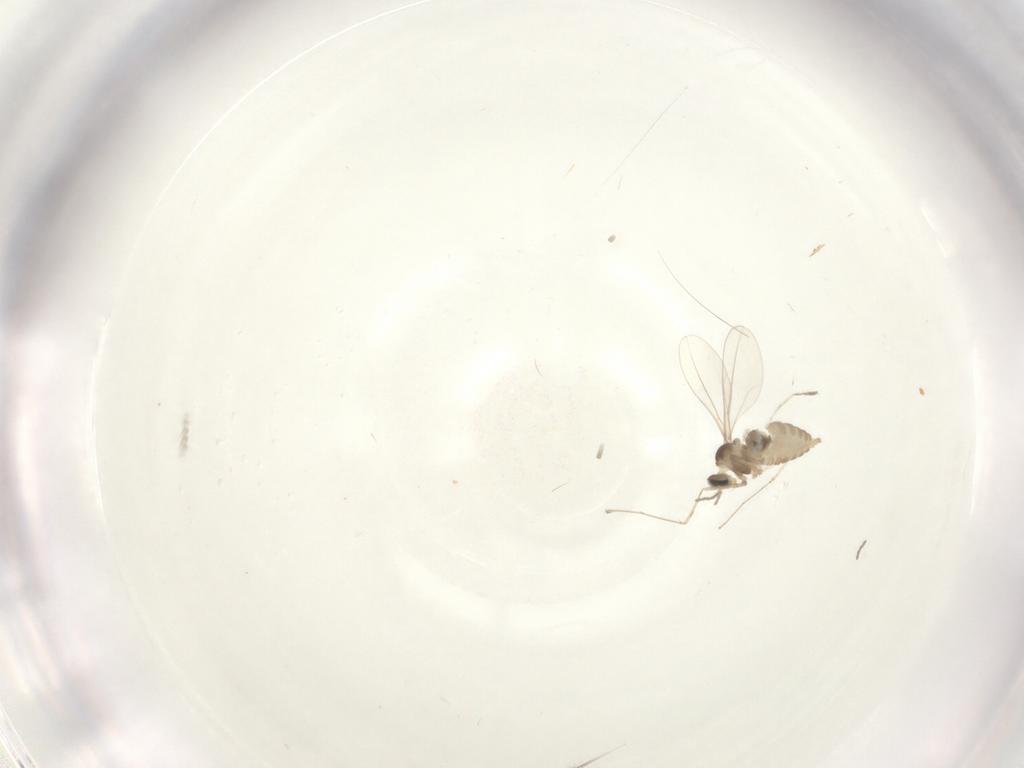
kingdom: Animalia
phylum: Arthropoda
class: Insecta
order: Diptera
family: Cecidomyiidae
